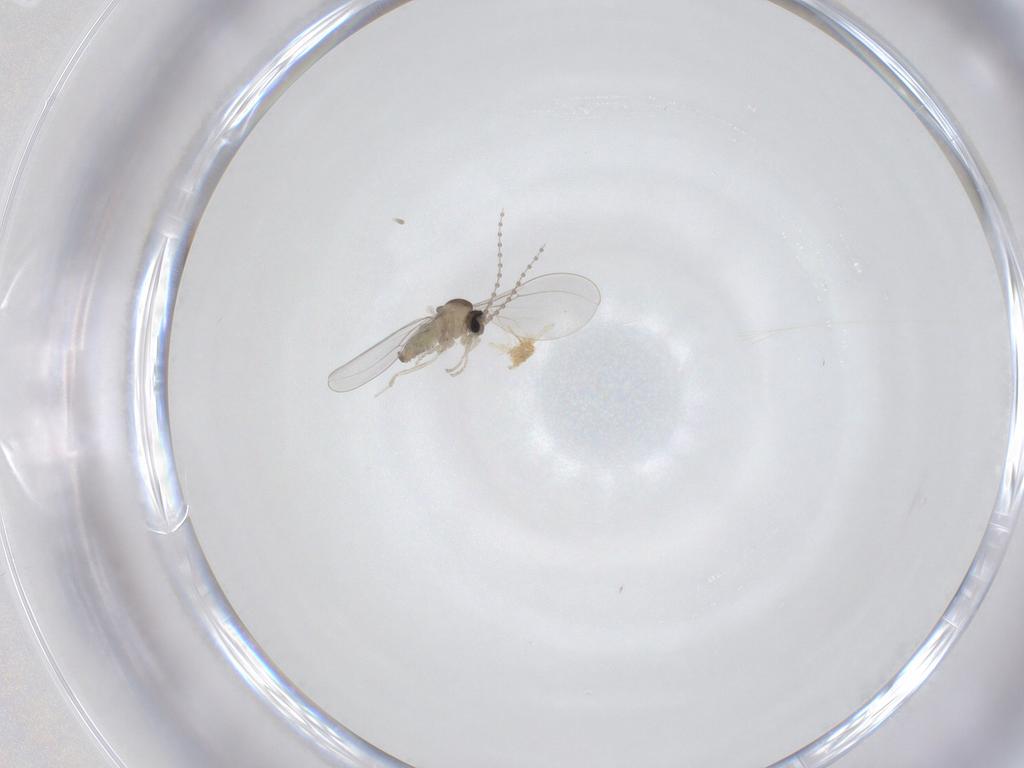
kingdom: Animalia
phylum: Arthropoda
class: Insecta
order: Diptera
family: Cecidomyiidae
